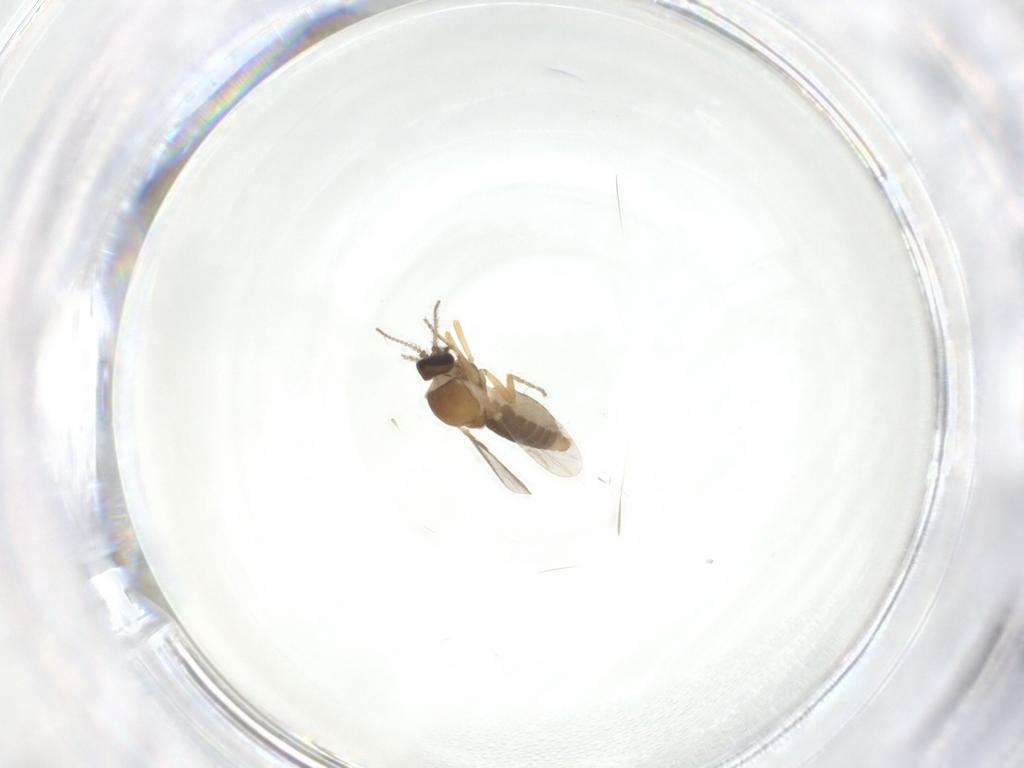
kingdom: Animalia
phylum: Arthropoda
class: Insecta
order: Diptera
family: Ceratopogonidae
